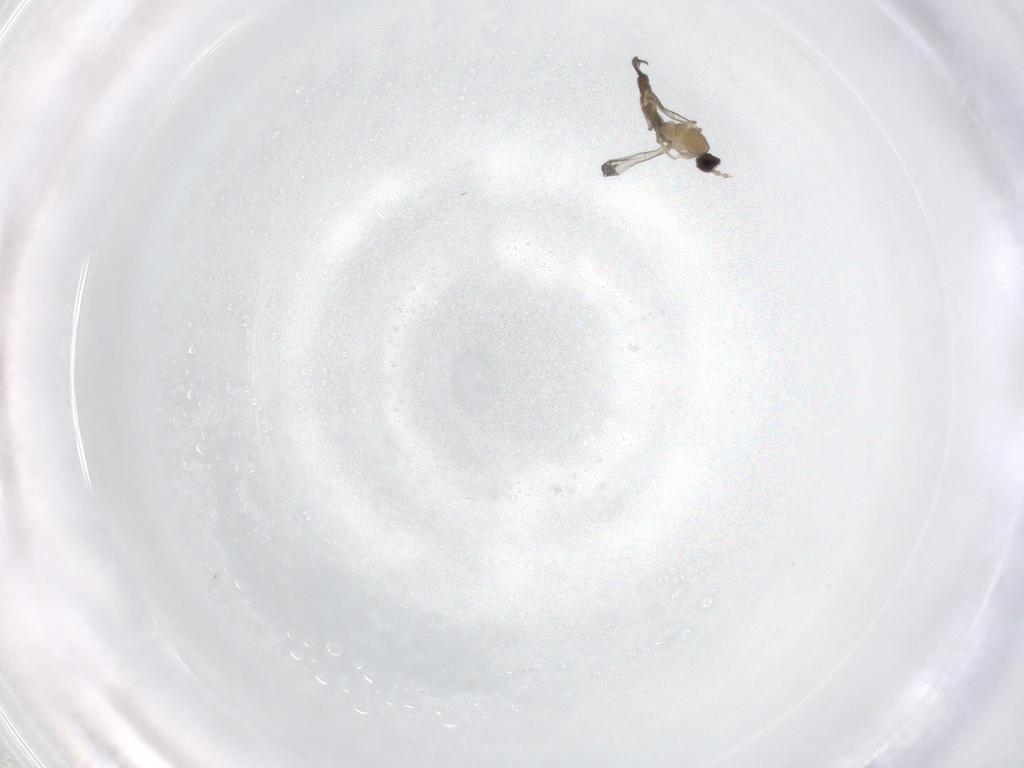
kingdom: Animalia
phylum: Arthropoda
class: Insecta
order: Diptera
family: Cecidomyiidae
